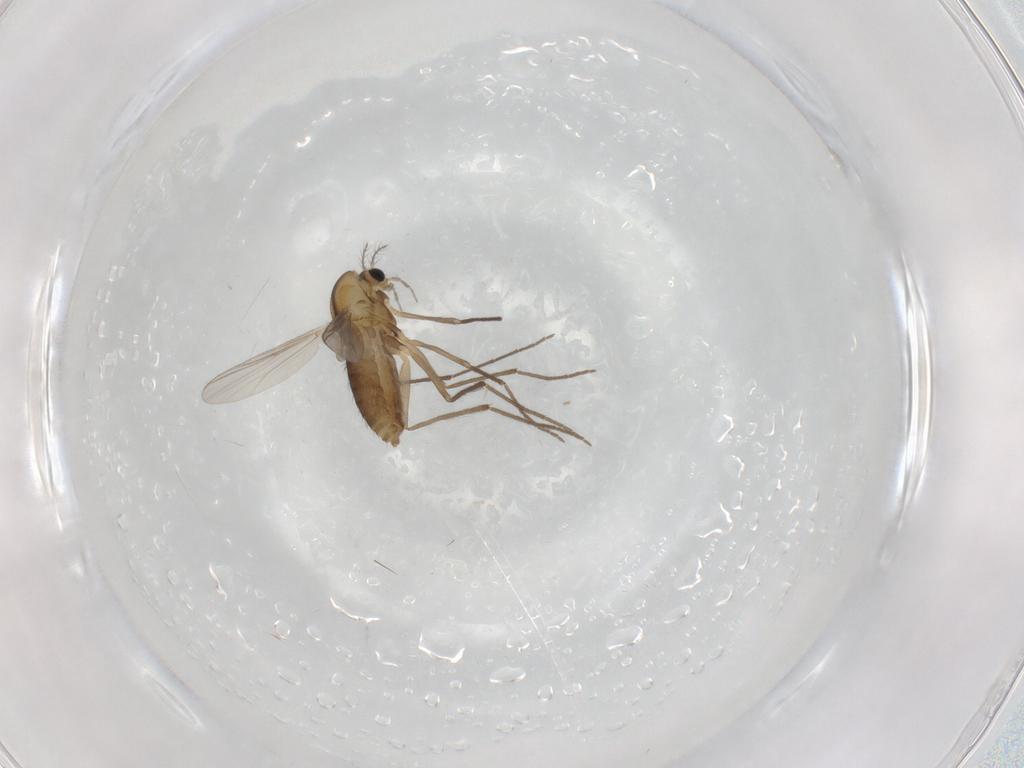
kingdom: Animalia
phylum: Arthropoda
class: Insecta
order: Diptera
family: Chironomidae
